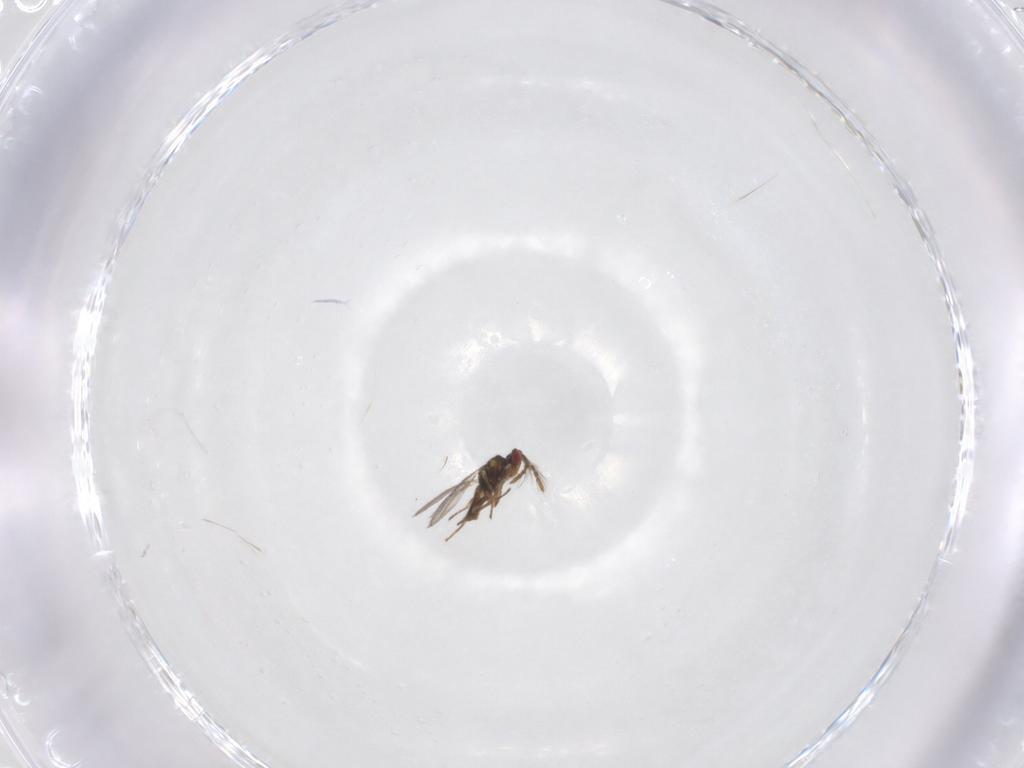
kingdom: Animalia
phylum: Arthropoda
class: Insecta
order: Hymenoptera
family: Eulophidae
